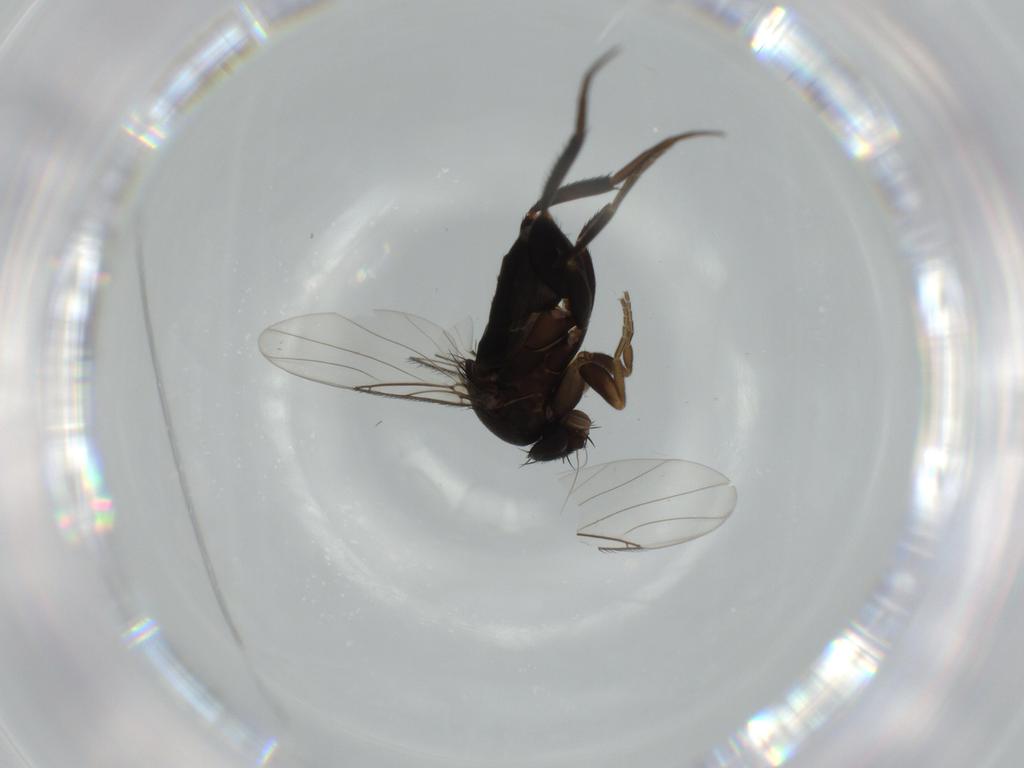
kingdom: Animalia
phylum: Arthropoda
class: Insecta
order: Diptera
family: Phoridae
